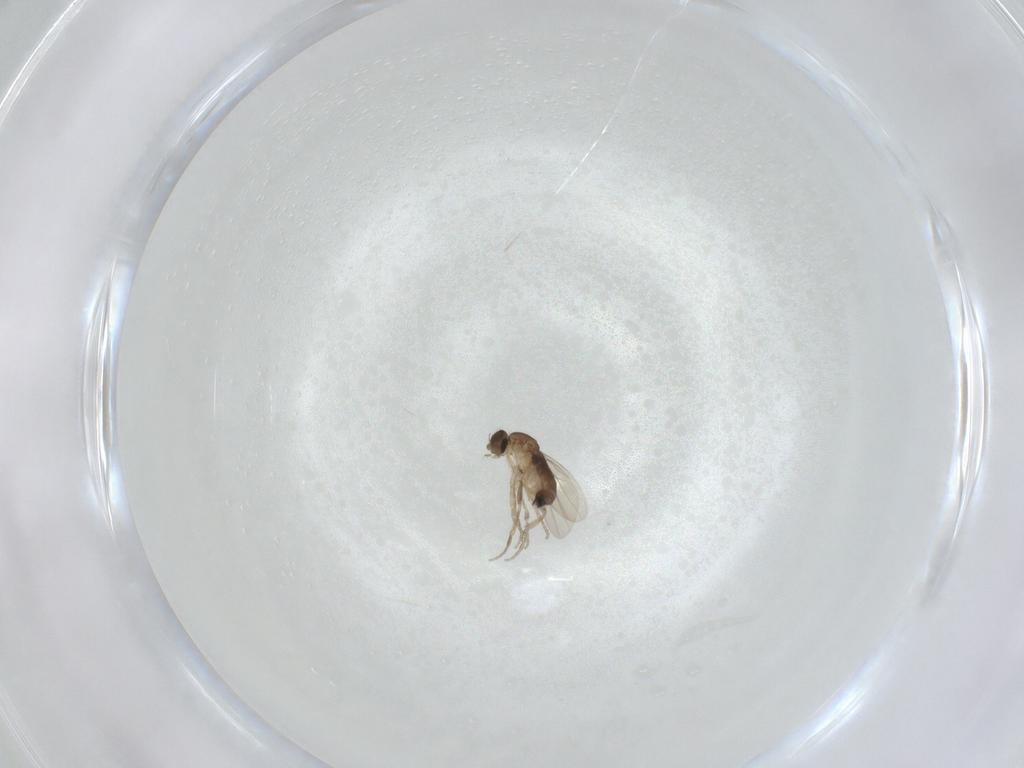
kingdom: Animalia
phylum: Arthropoda
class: Insecta
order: Diptera
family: Phoridae
